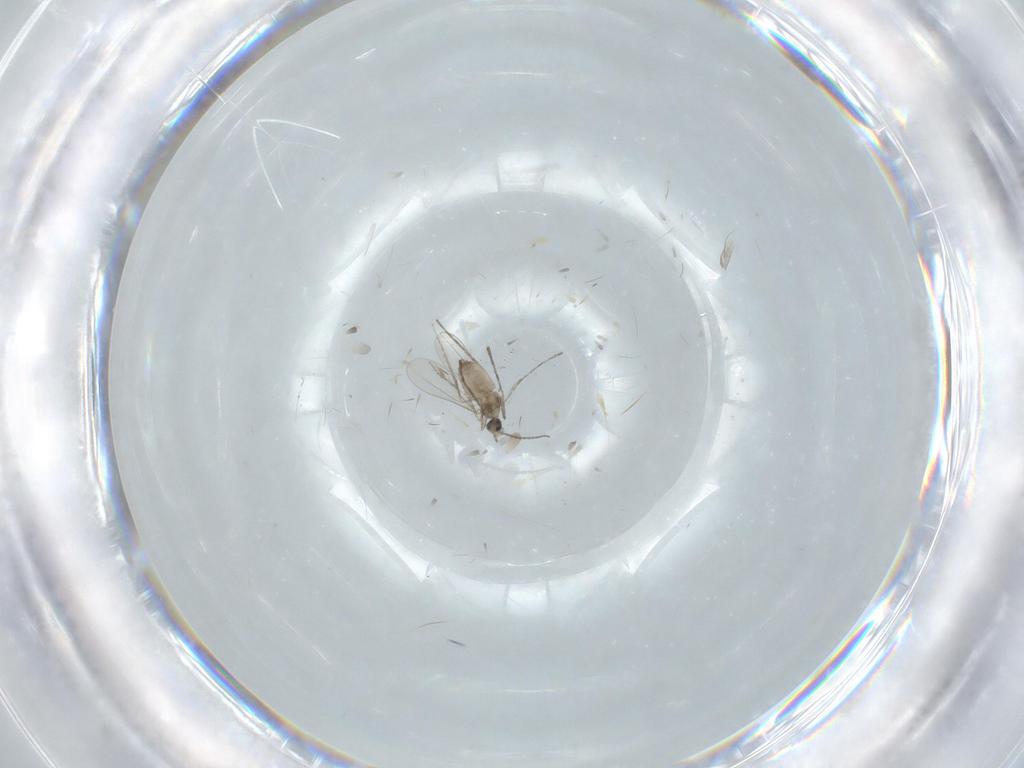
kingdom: Animalia
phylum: Arthropoda
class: Insecta
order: Diptera
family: Cecidomyiidae
